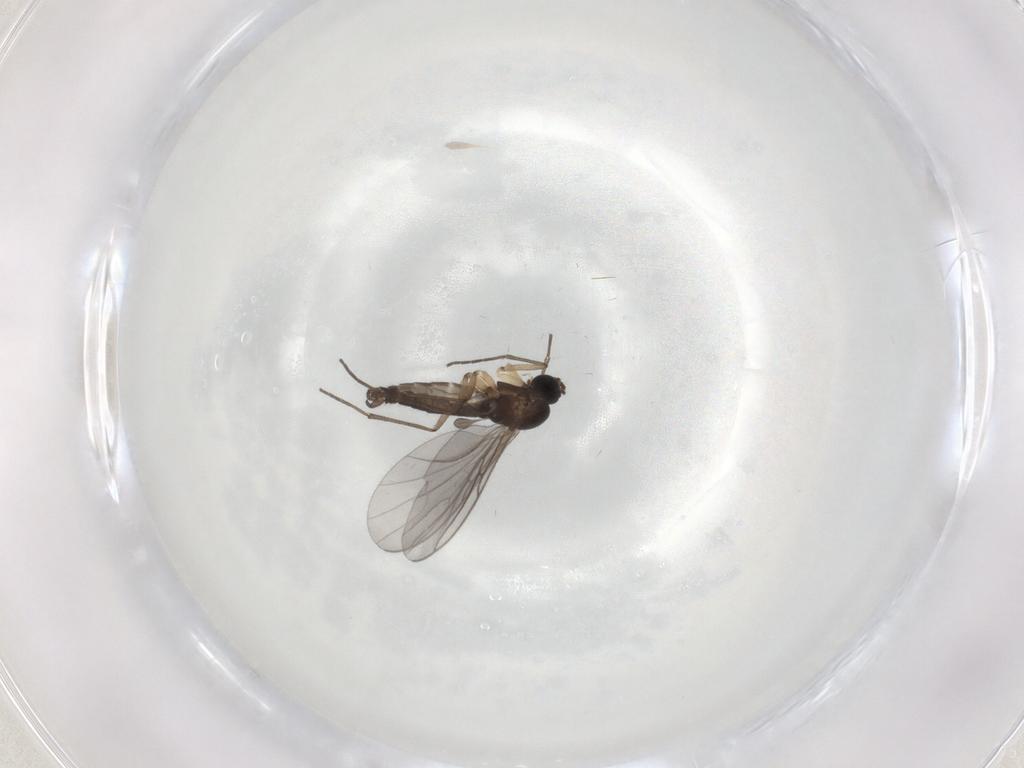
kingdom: Animalia
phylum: Arthropoda
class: Insecta
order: Diptera
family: Sciaridae
